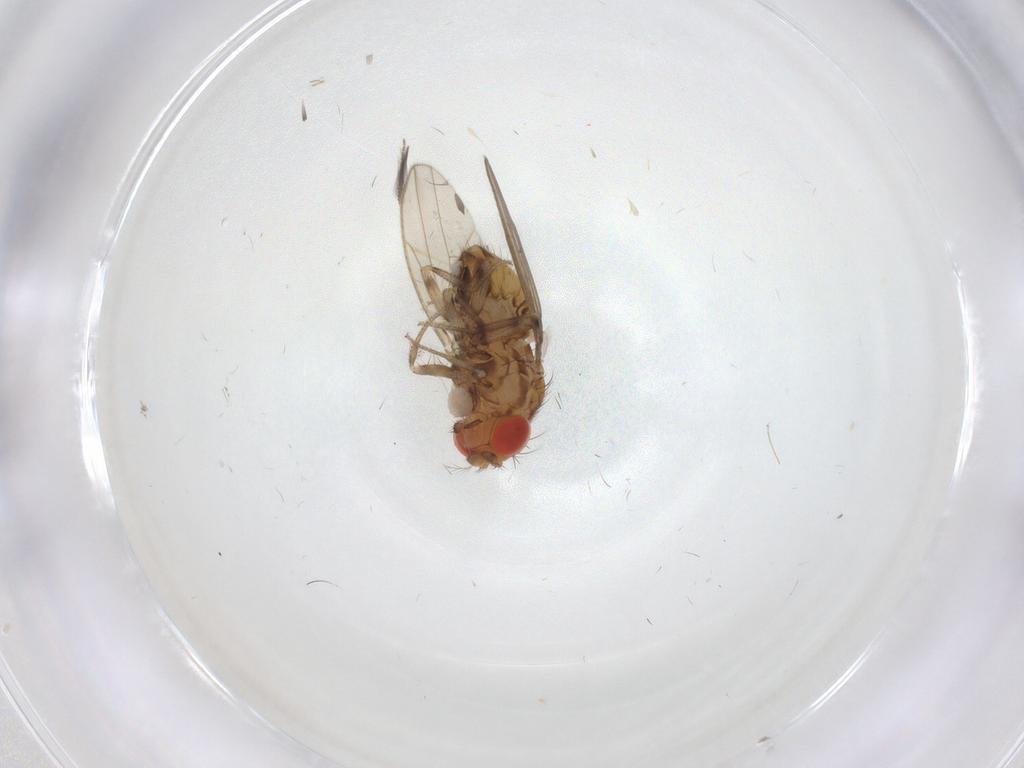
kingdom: Animalia
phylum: Arthropoda
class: Insecta
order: Diptera
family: Drosophilidae
